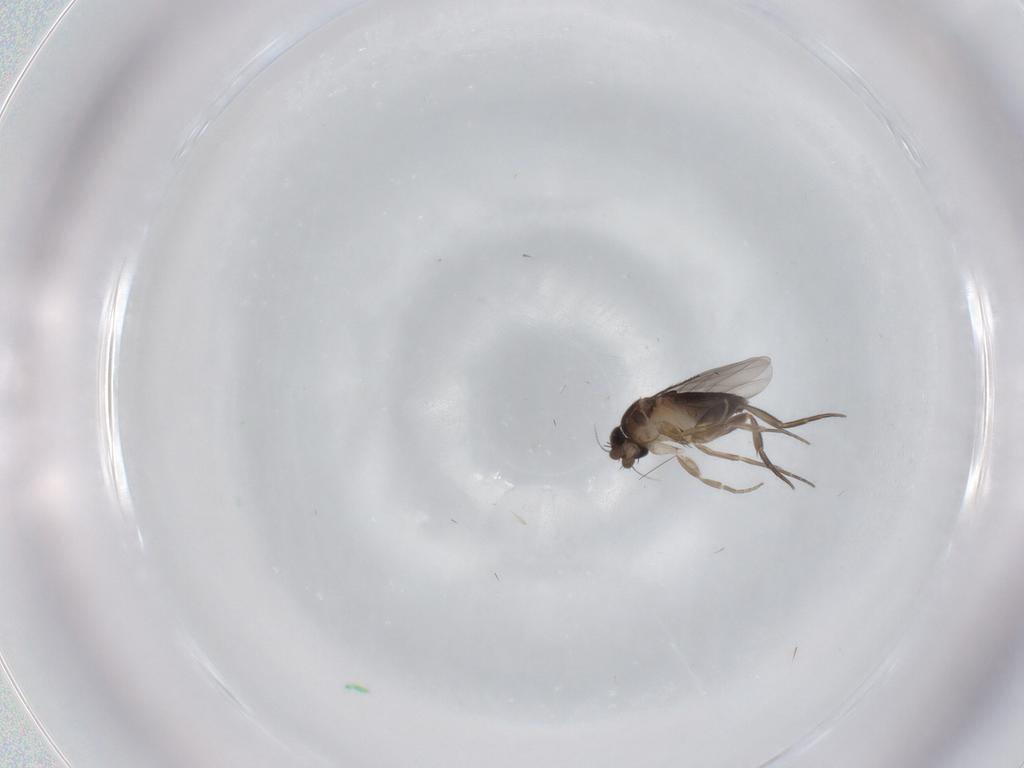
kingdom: Animalia
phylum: Arthropoda
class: Insecta
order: Diptera
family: Phoridae
